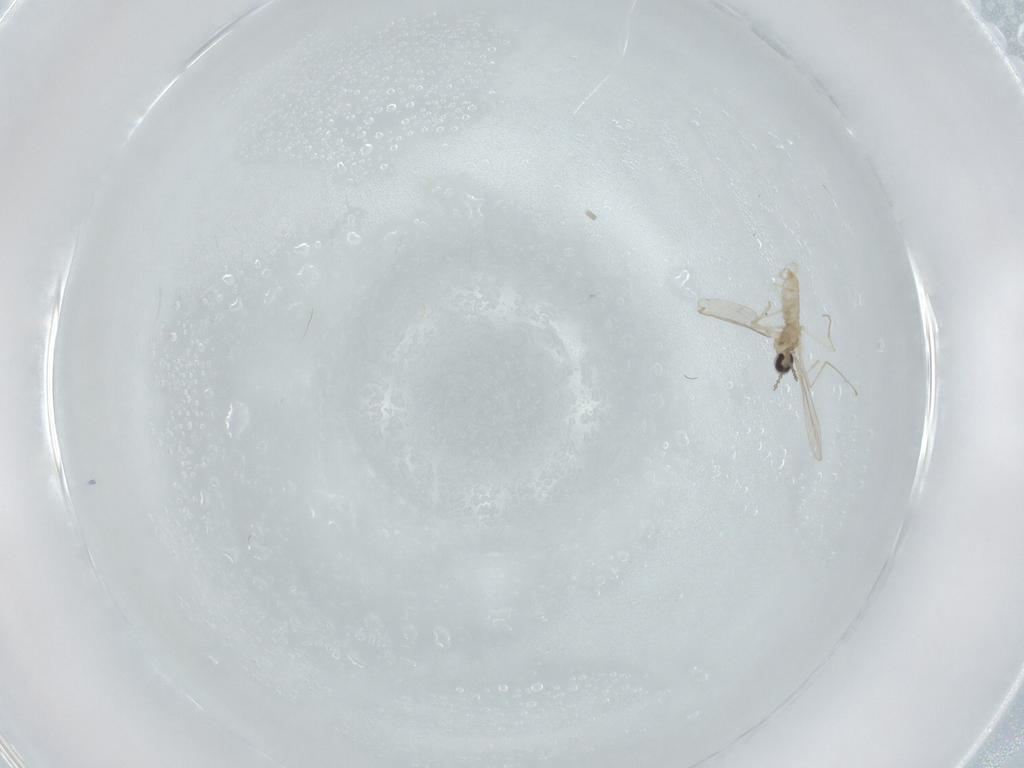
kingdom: Animalia
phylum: Arthropoda
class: Insecta
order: Diptera
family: Cecidomyiidae
